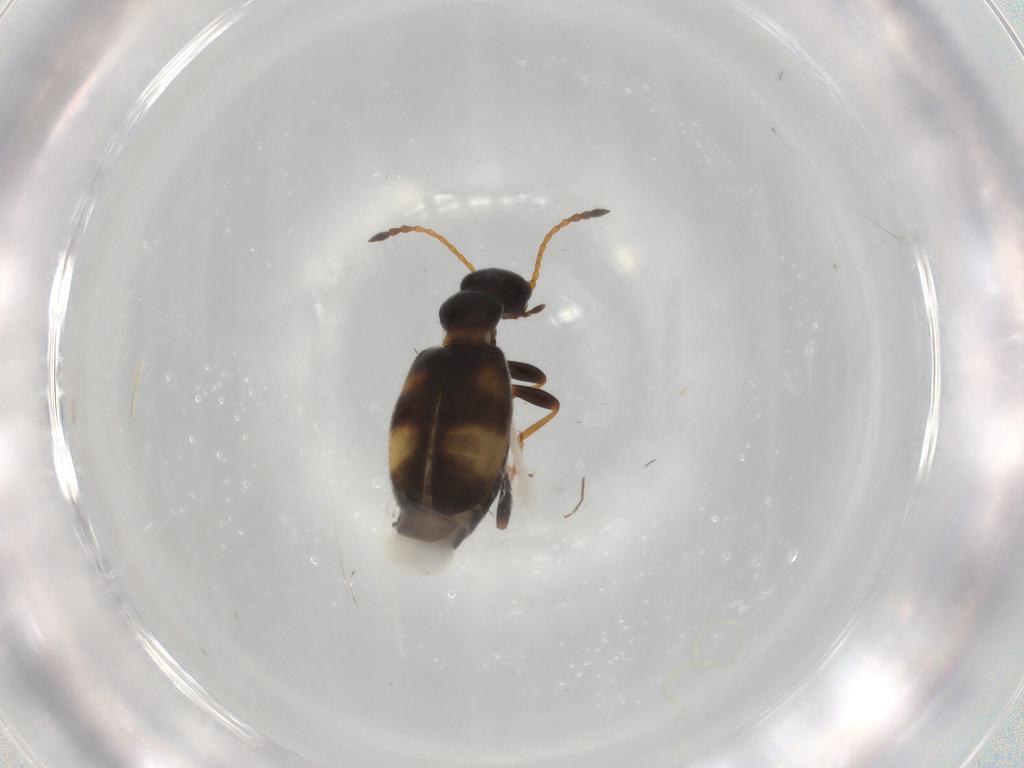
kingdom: Animalia
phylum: Arthropoda
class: Insecta
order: Coleoptera
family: Anthicidae
